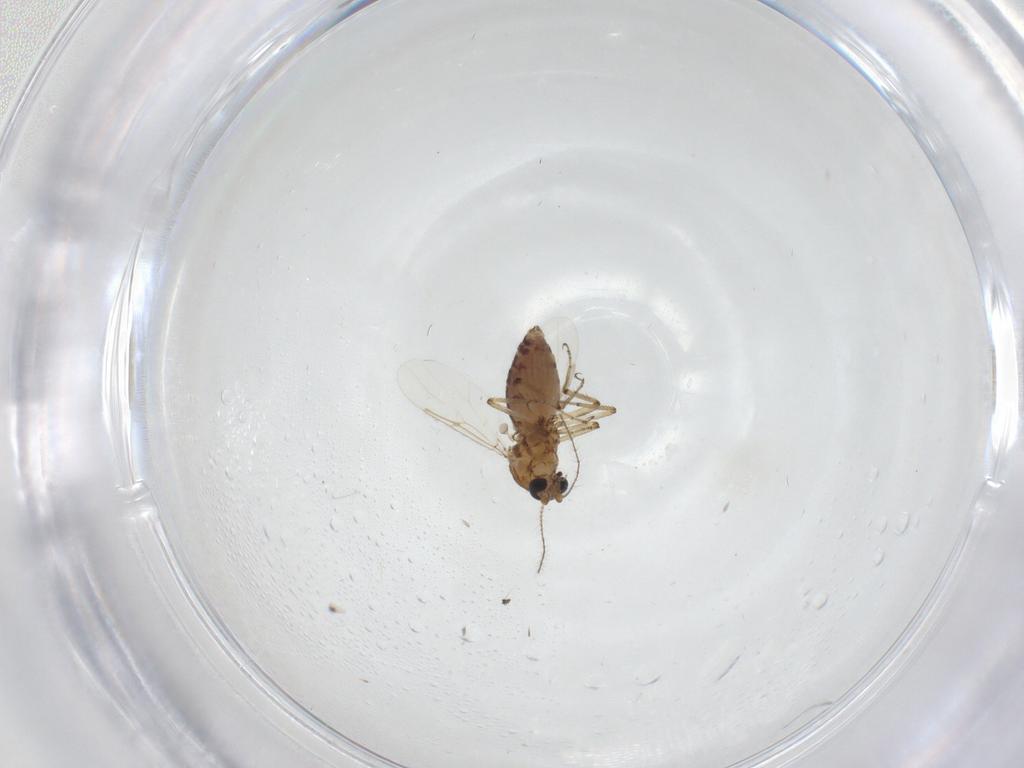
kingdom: Animalia
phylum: Arthropoda
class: Insecta
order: Diptera
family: Ceratopogonidae
